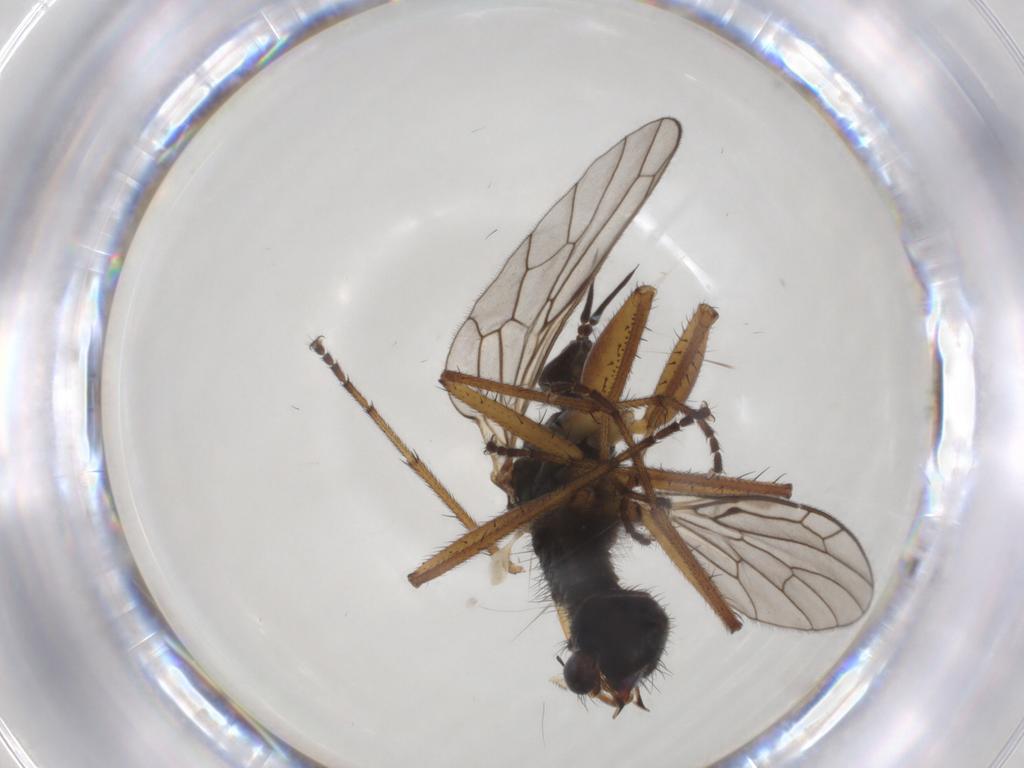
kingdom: Animalia
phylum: Arthropoda
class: Insecta
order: Diptera
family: Empididae
